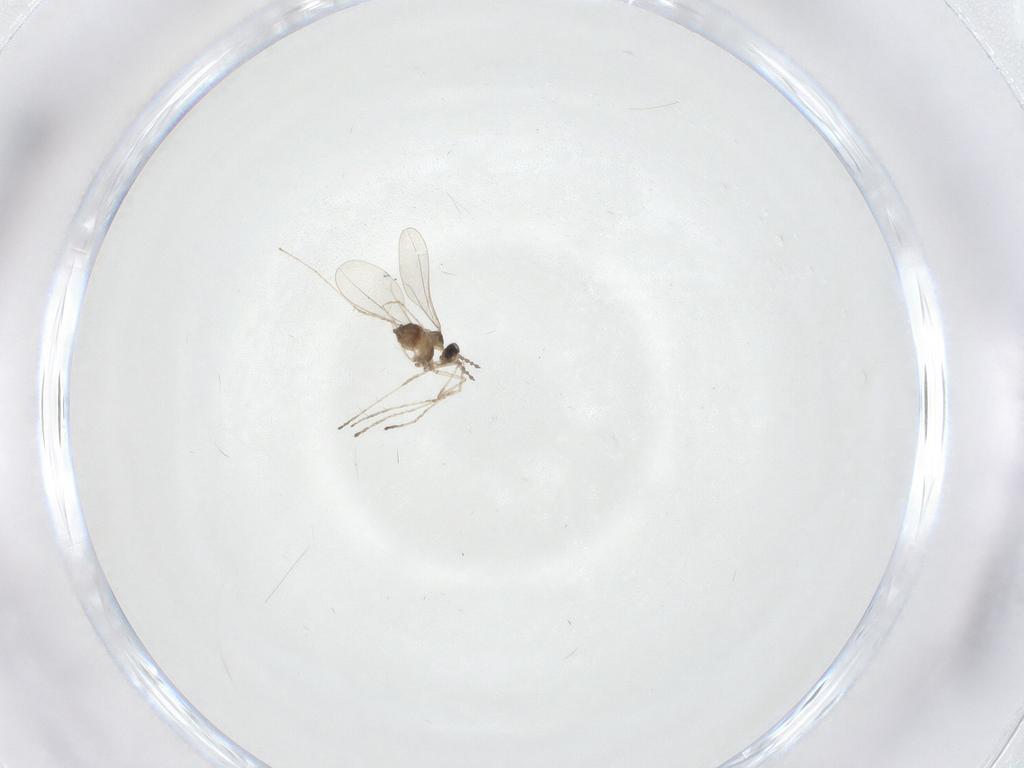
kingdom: Animalia
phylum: Arthropoda
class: Insecta
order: Diptera
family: Cecidomyiidae
